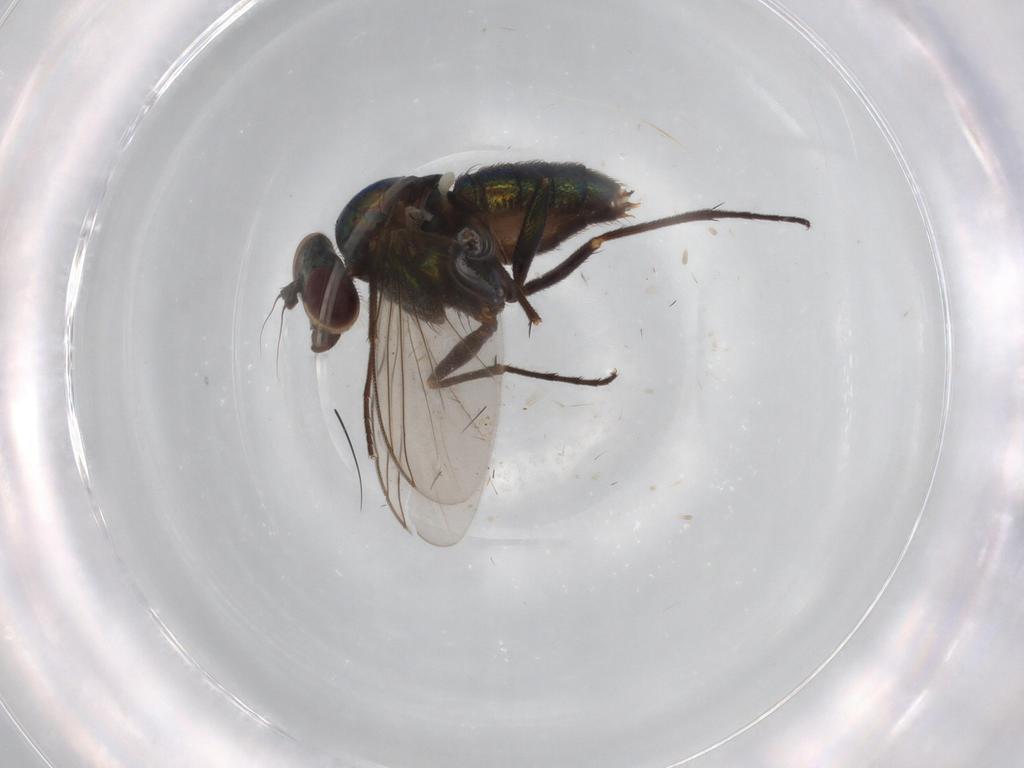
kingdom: Animalia
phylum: Arthropoda
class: Insecta
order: Diptera
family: Dolichopodidae
